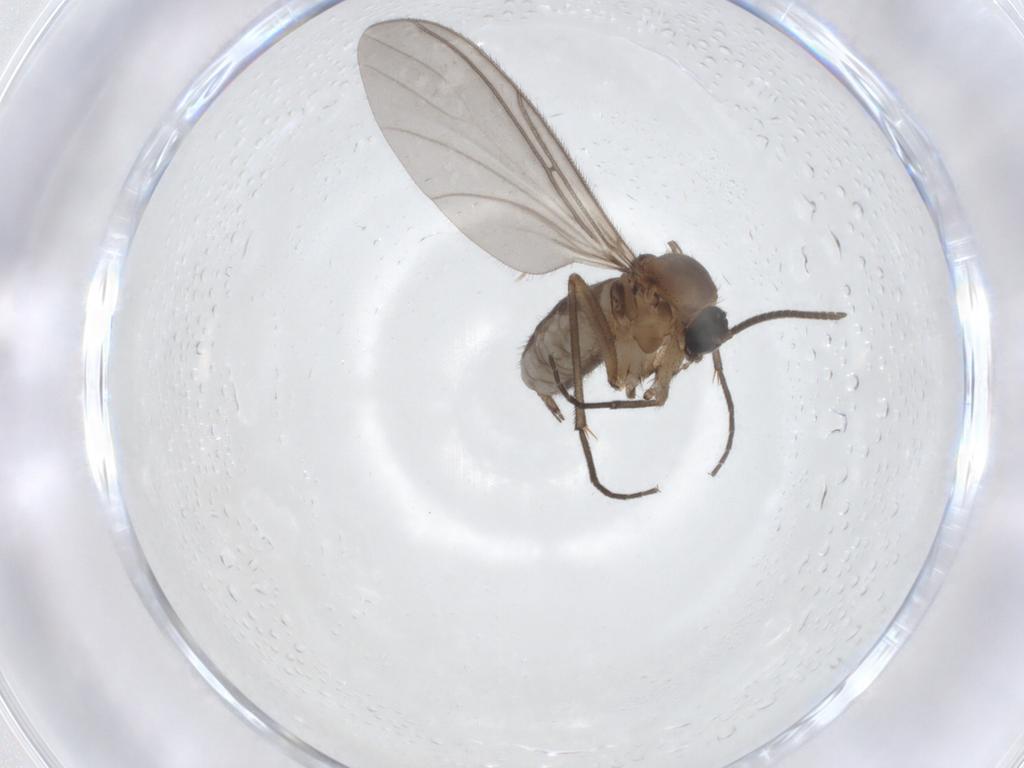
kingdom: Animalia
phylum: Arthropoda
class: Insecta
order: Diptera
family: Sciaridae
